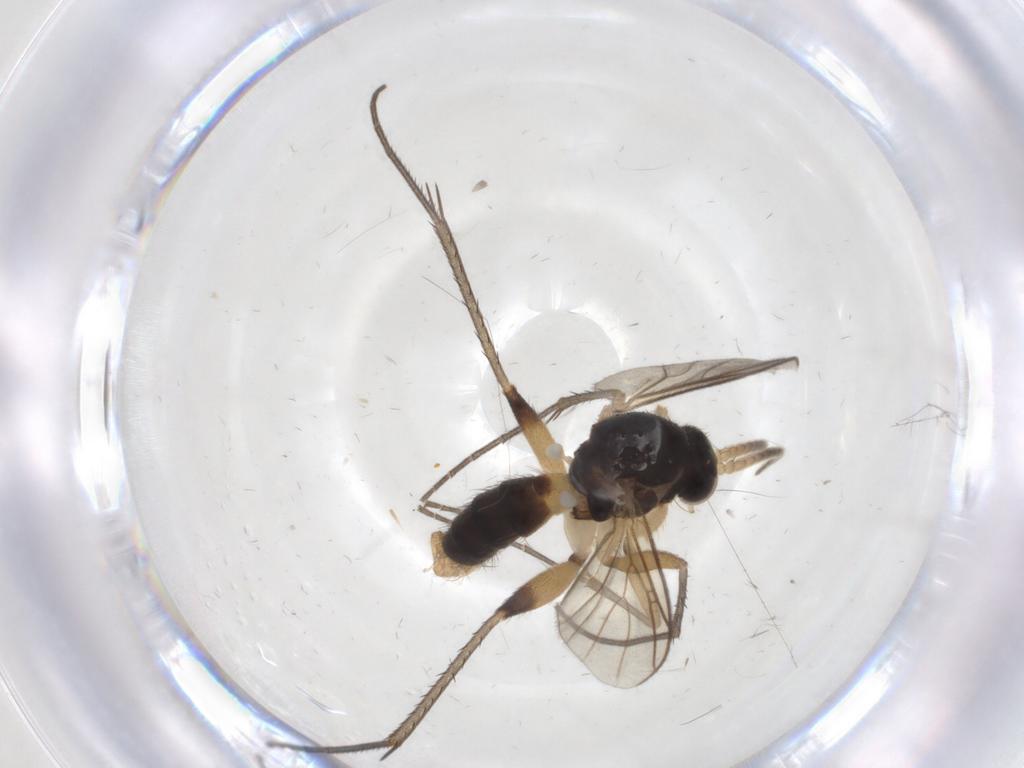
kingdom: Animalia
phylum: Arthropoda
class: Insecta
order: Diptera
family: Mycetophilidae
